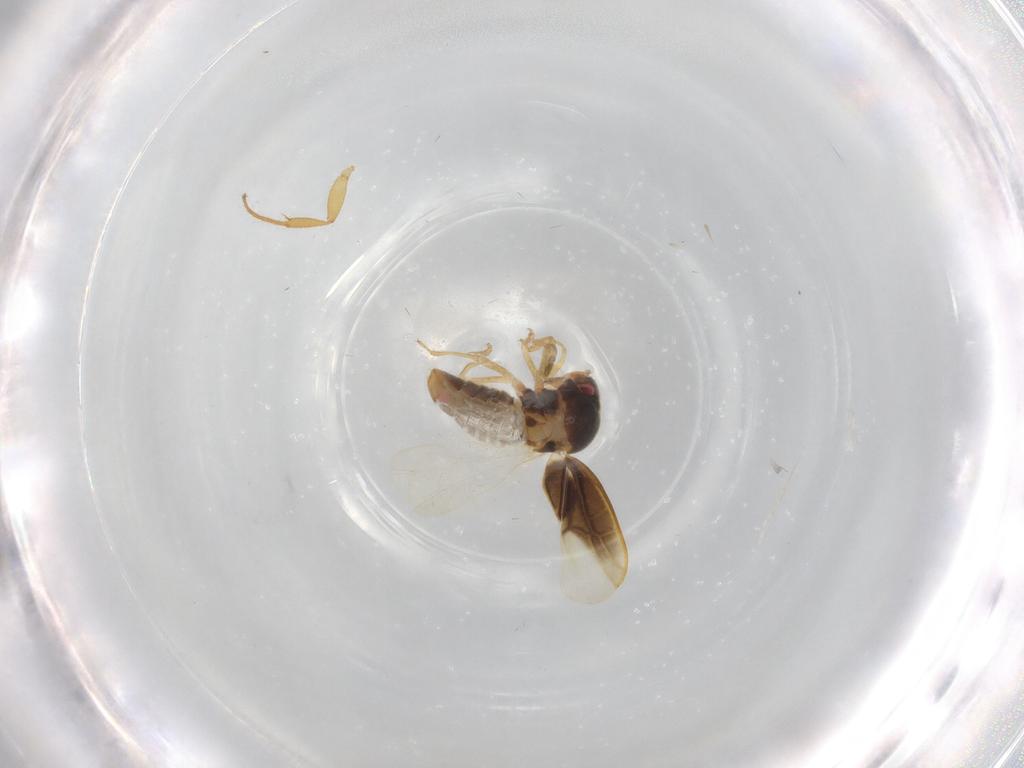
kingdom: Animalia
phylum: Arthropoda
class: Insecta
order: Hemiptera
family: Schizopteridae
